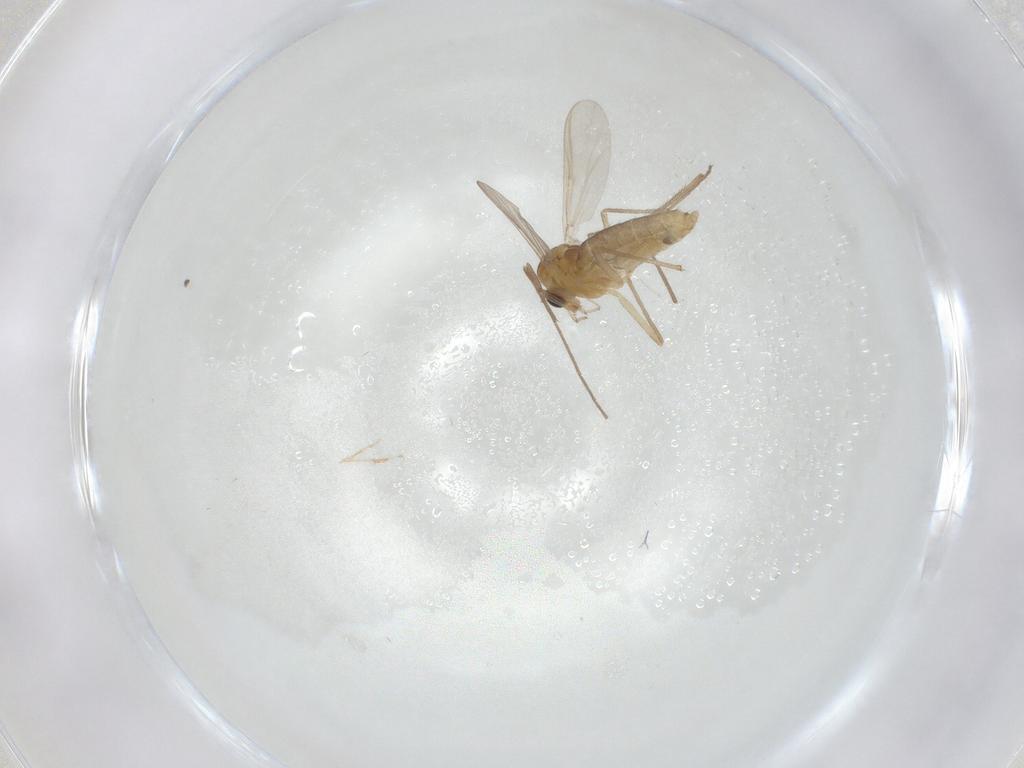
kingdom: Animalia
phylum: Arthropoda
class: Insecta
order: Diptera
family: Chironomidae
